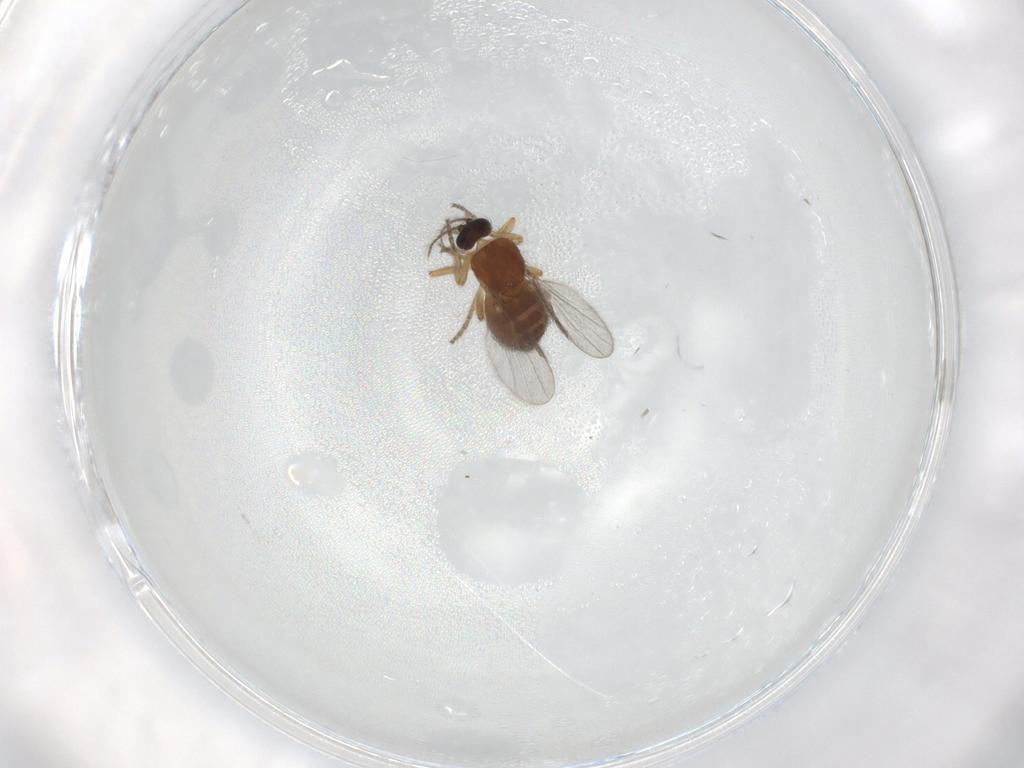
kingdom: Animalia
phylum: Arthropoda
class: Insecta
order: Diptera
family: Ceratopogonidae
